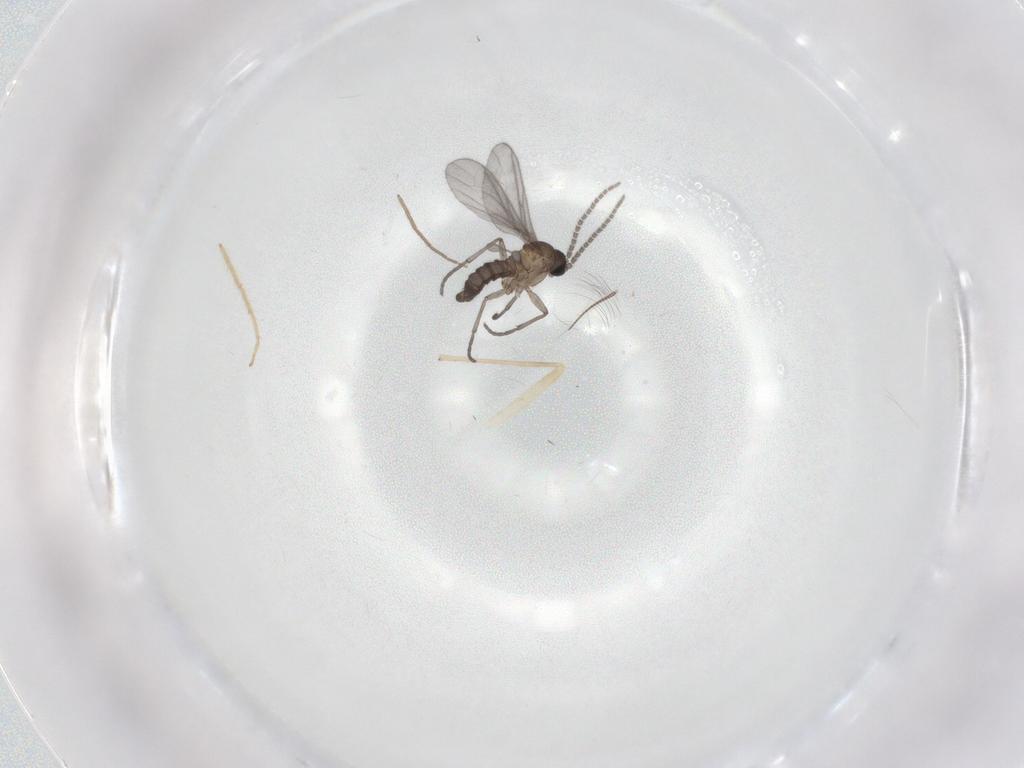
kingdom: Animalia
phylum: Arthropoda
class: Insecta
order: Diptera
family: Sciaridae
